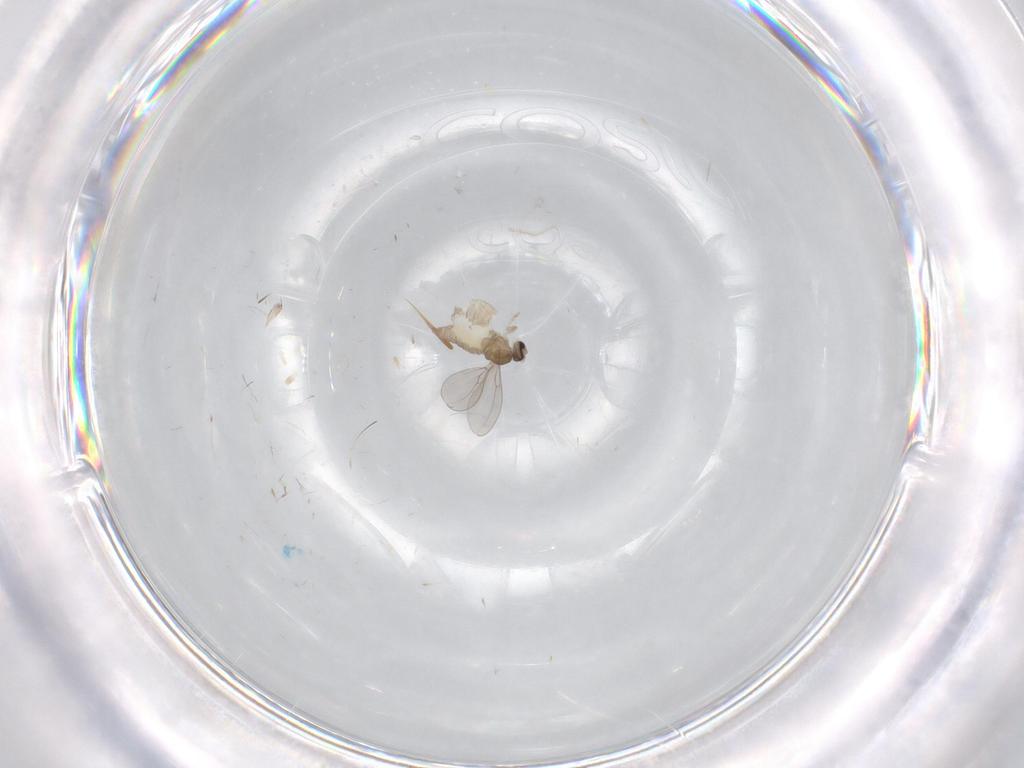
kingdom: Animalia
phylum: Arthropoda
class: Insecta
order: Diptera
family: Cecidomyiidae
